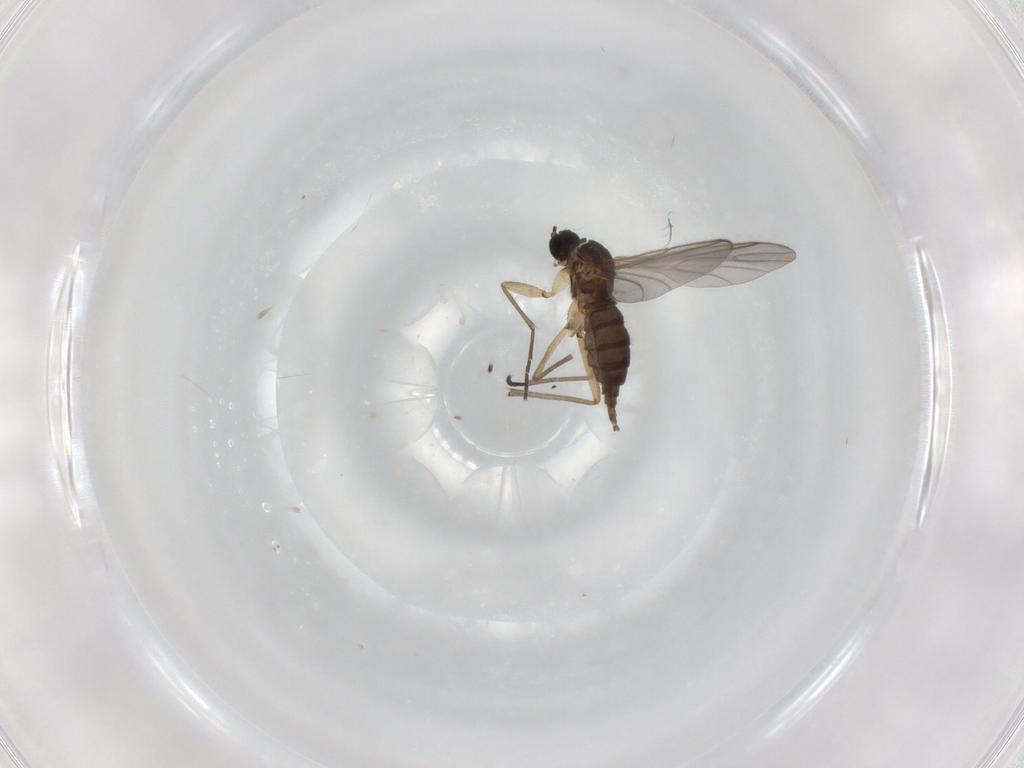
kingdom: Animalia
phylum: Arthropoda
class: Insecta
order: Diptera
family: Sciaridae
